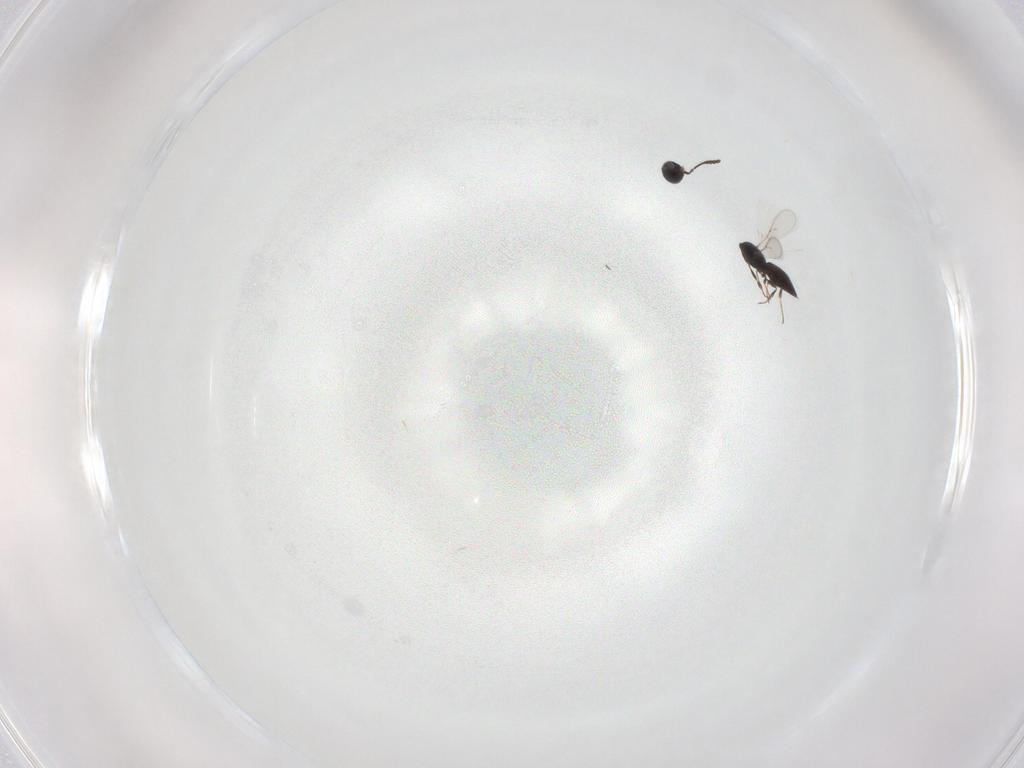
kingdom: Animalia
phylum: Arthropoda
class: Insecta
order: Hymenoptera
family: Scelionidae
